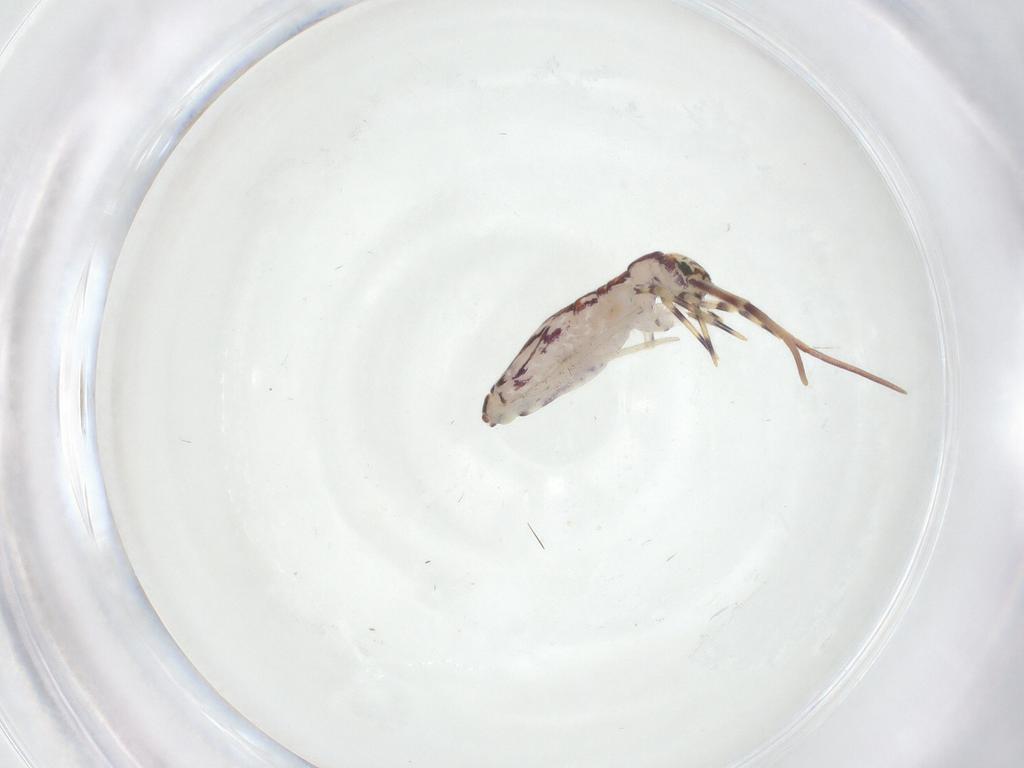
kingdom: Animalia
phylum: Arthropoda
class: Collembola
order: Entomobryomorpha
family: Entomobryidae
